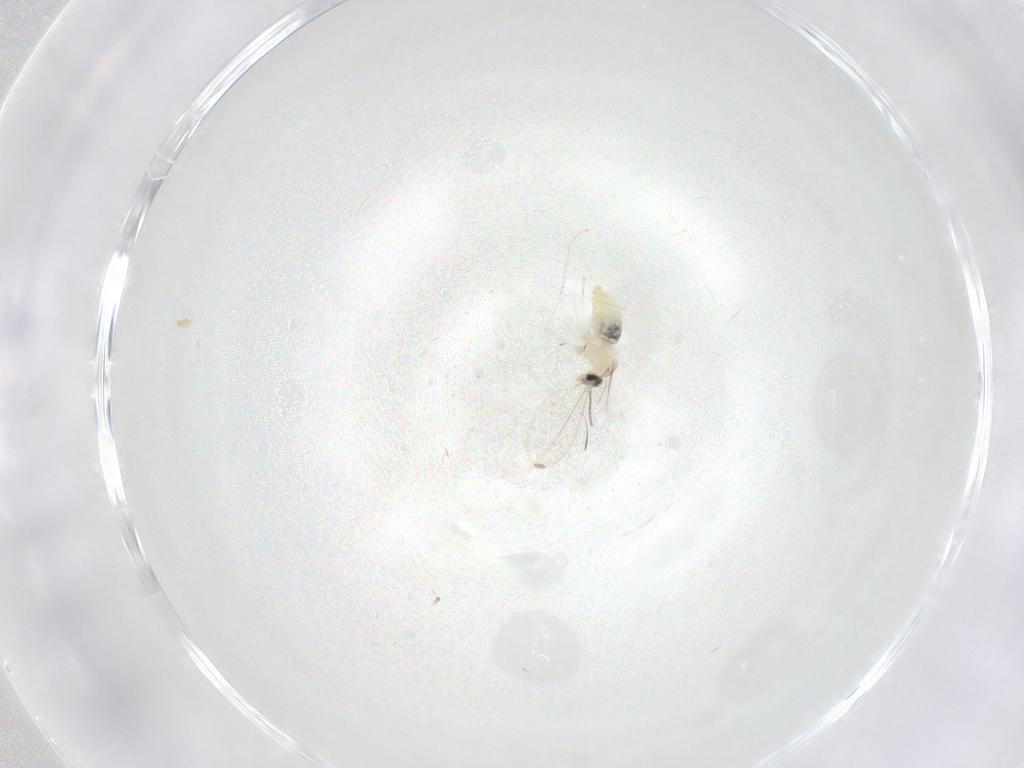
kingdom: Animalia
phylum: Arthropoda
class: Insecta
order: Diptera
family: Cecidomyiidae
